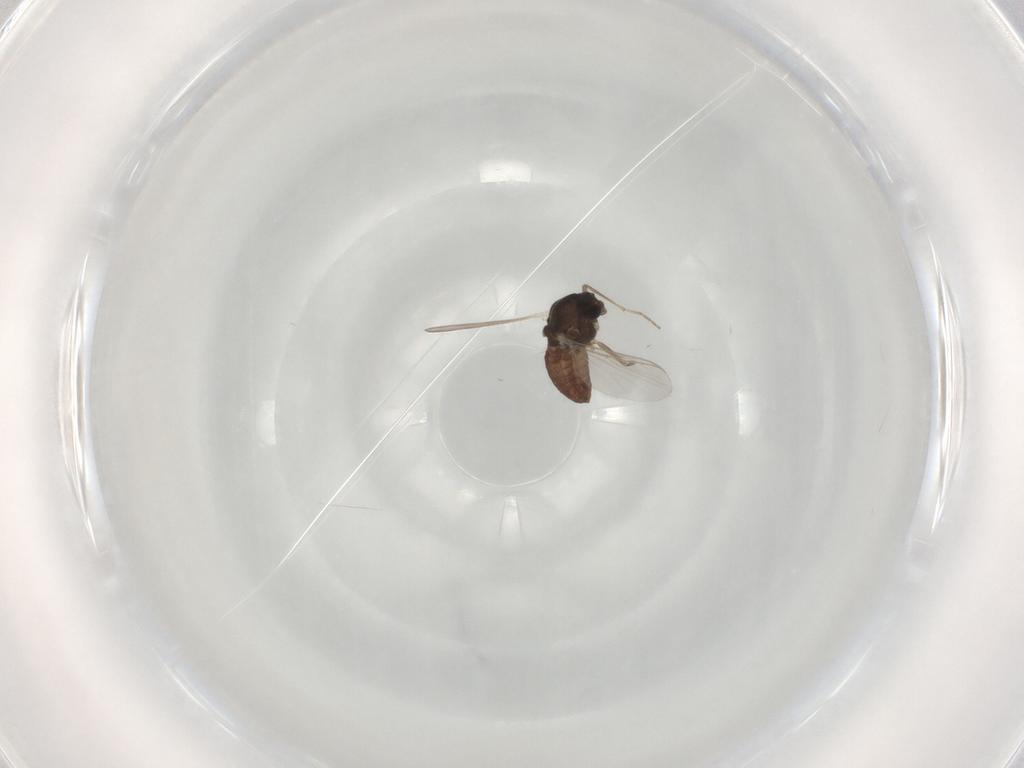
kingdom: Animalia
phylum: Arthropoda
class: Insecta
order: Diptera
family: Chironomidae
